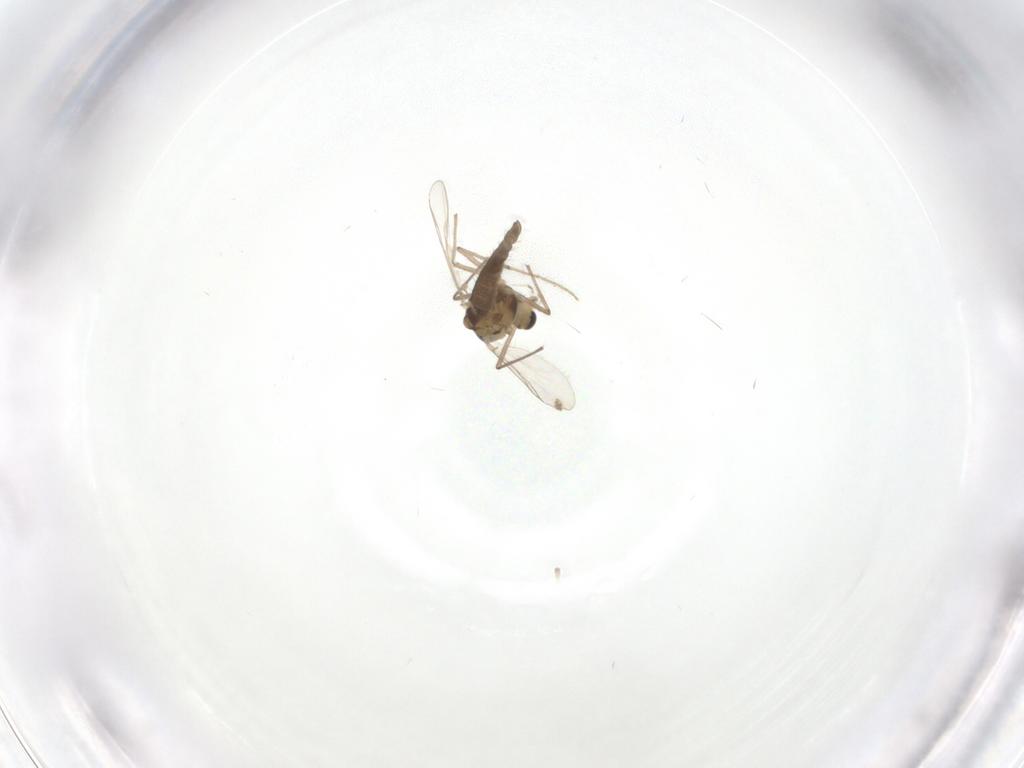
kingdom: Animalia
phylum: Arthropoda
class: Insecta
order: Diptera
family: Chironomidae
